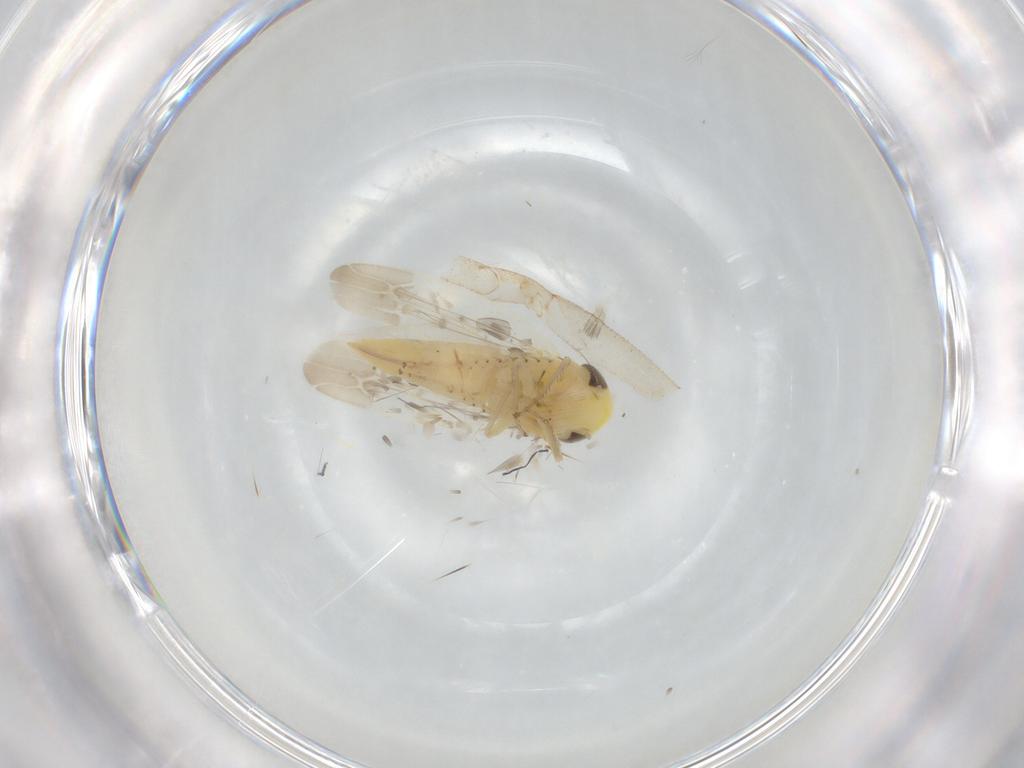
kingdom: Animalia
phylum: Arthropoda
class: Insecta
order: Hemiptera
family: Cicadellidae
